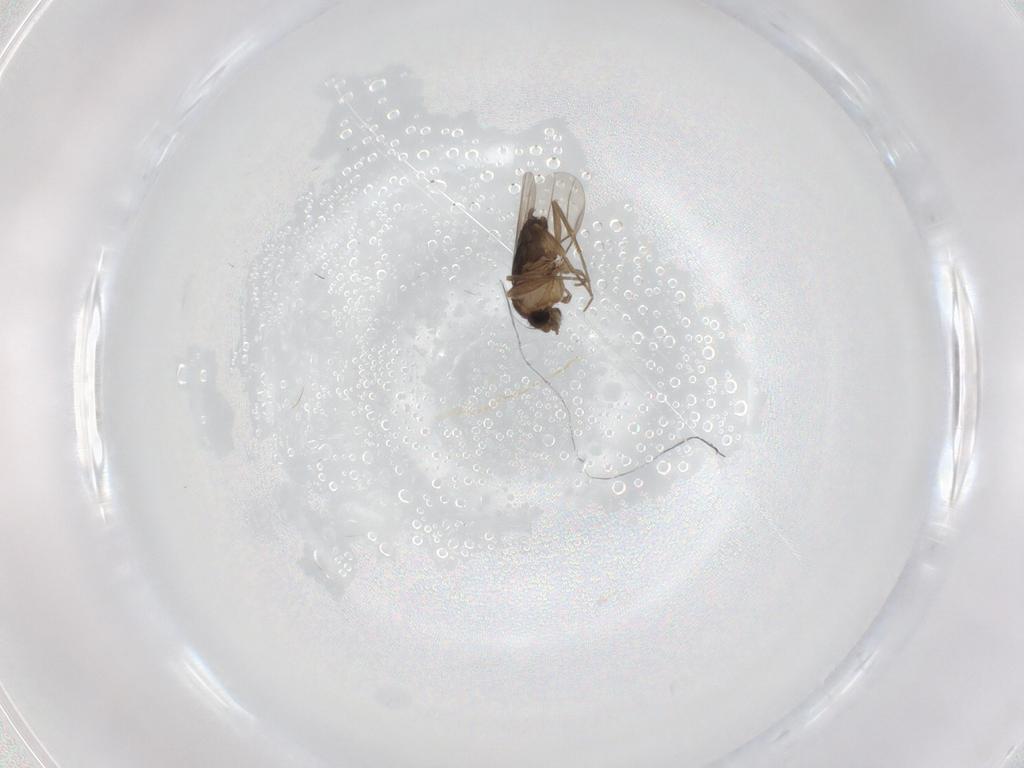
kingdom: Animalia
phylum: Arthropoda
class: Insecta
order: Diptera
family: Phoridae
